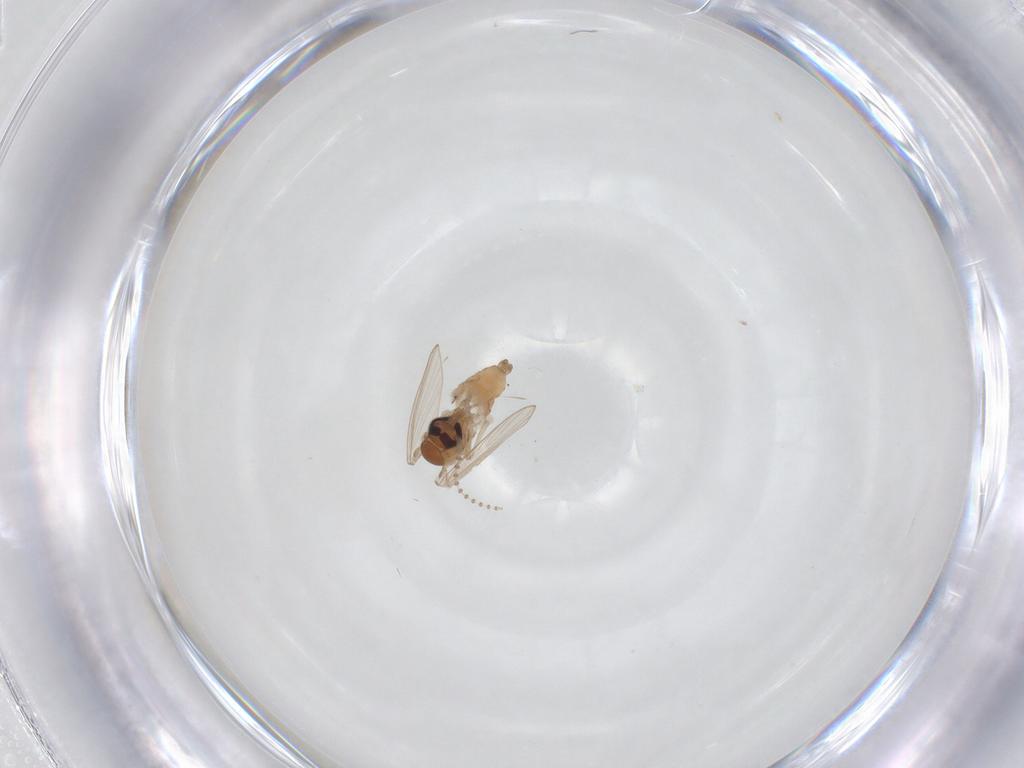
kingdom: Animalia
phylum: Arthropoda
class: Insecta
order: Diptera
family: Psychodidae
